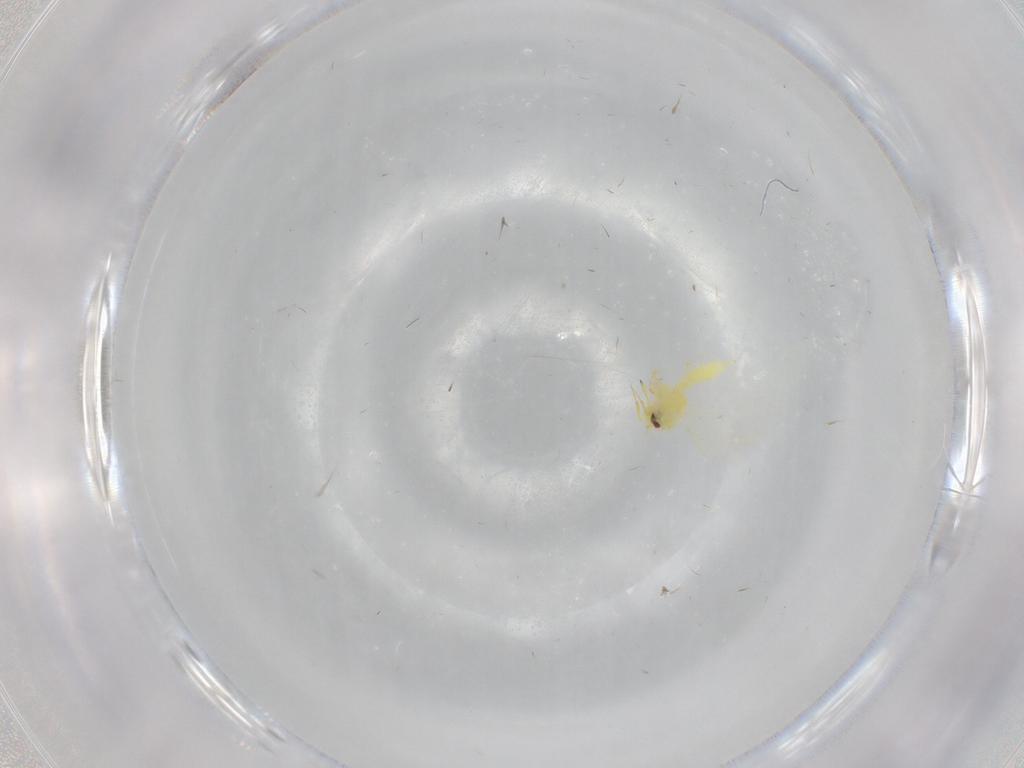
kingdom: Animalia
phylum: Arthropoda
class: Insecta
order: Hemiptera
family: Aleyrodidae
